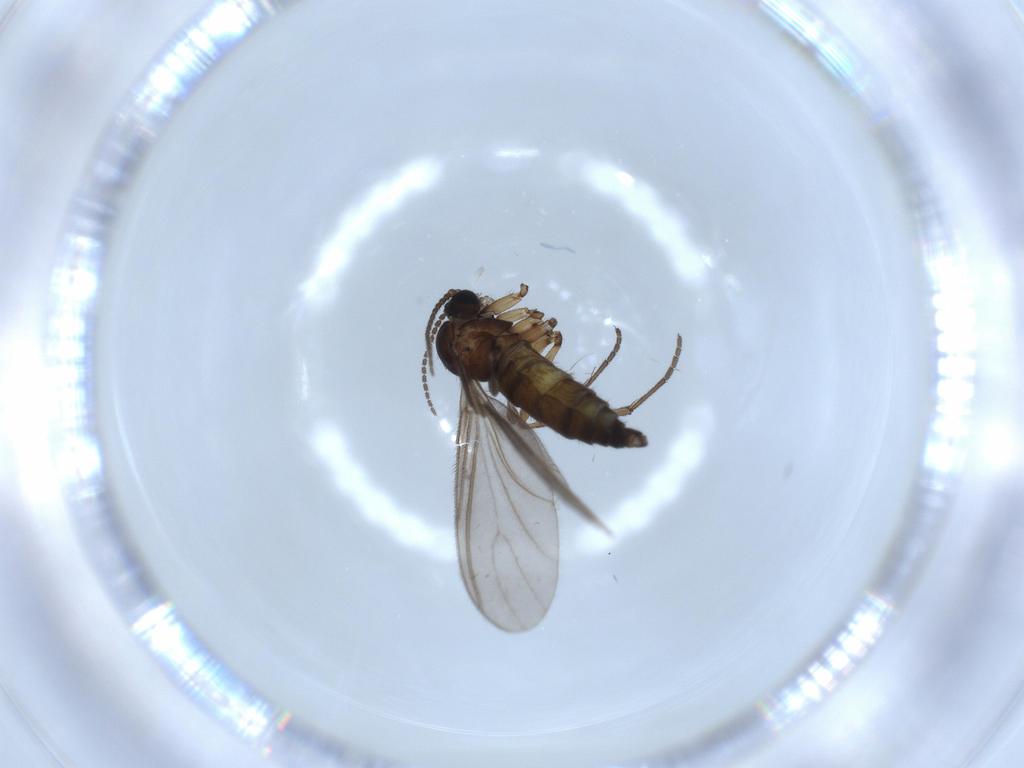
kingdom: Animalia
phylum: Arthropoda
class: Insecta
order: Diptera
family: Sciaridae
